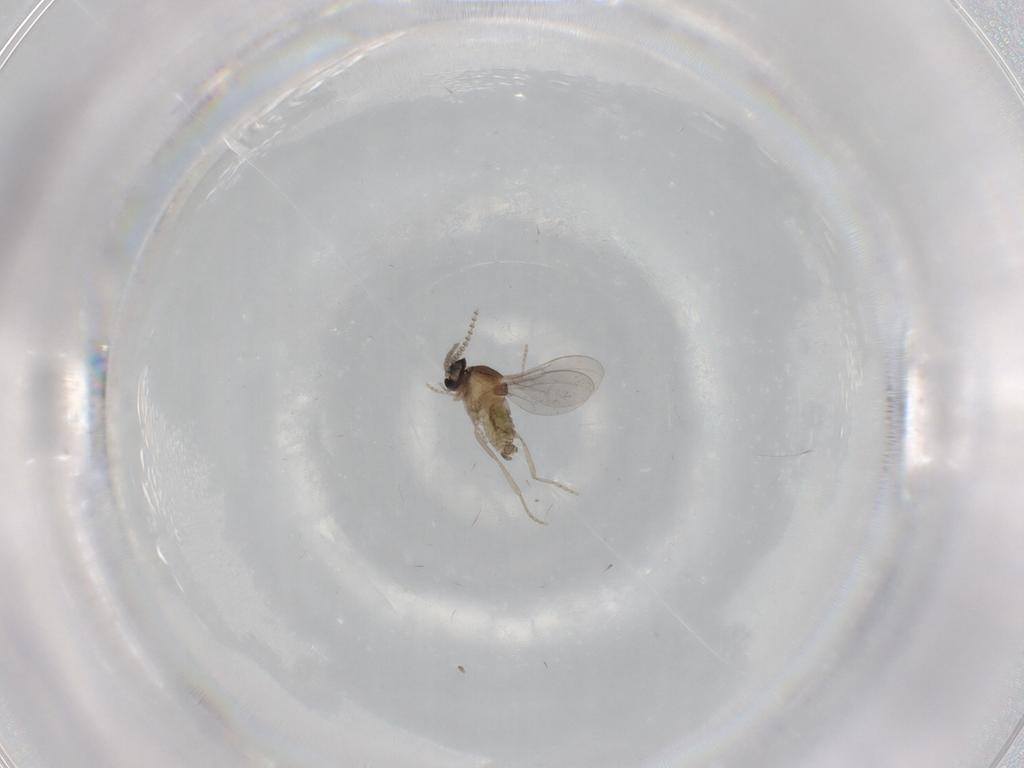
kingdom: Animalia
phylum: Arthropoda
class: Insecta
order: Diptera
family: Cecidomyiidae
